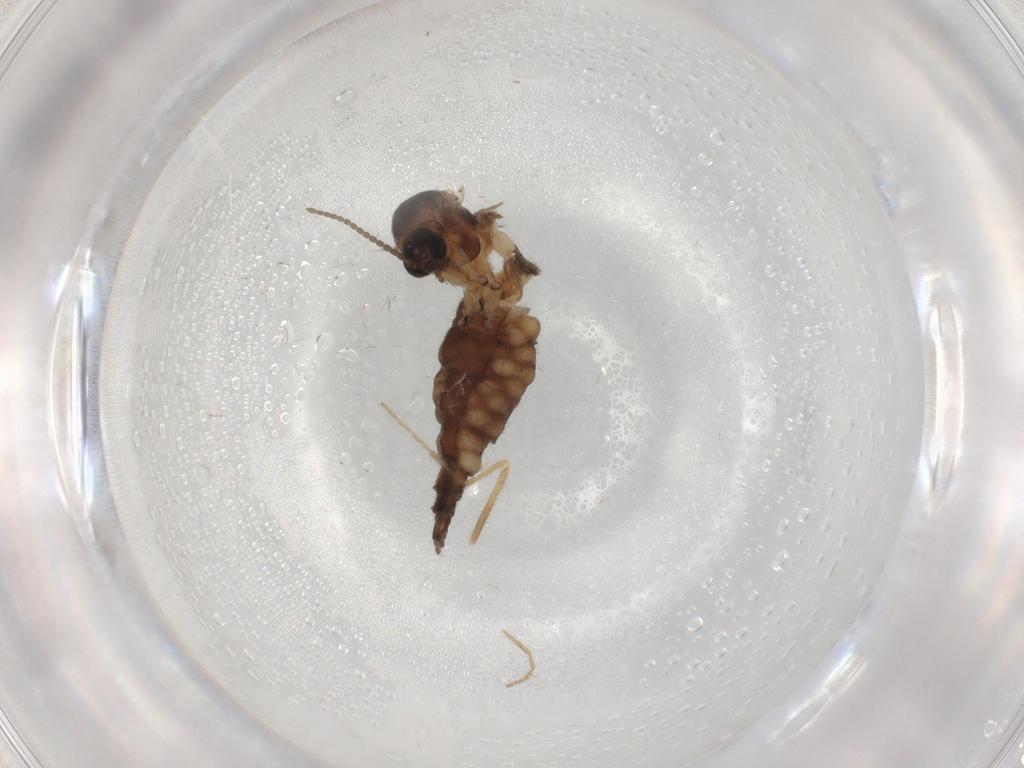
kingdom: Animalia
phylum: Arthropoda
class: Insecta
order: Diptera
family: Sciaridae
